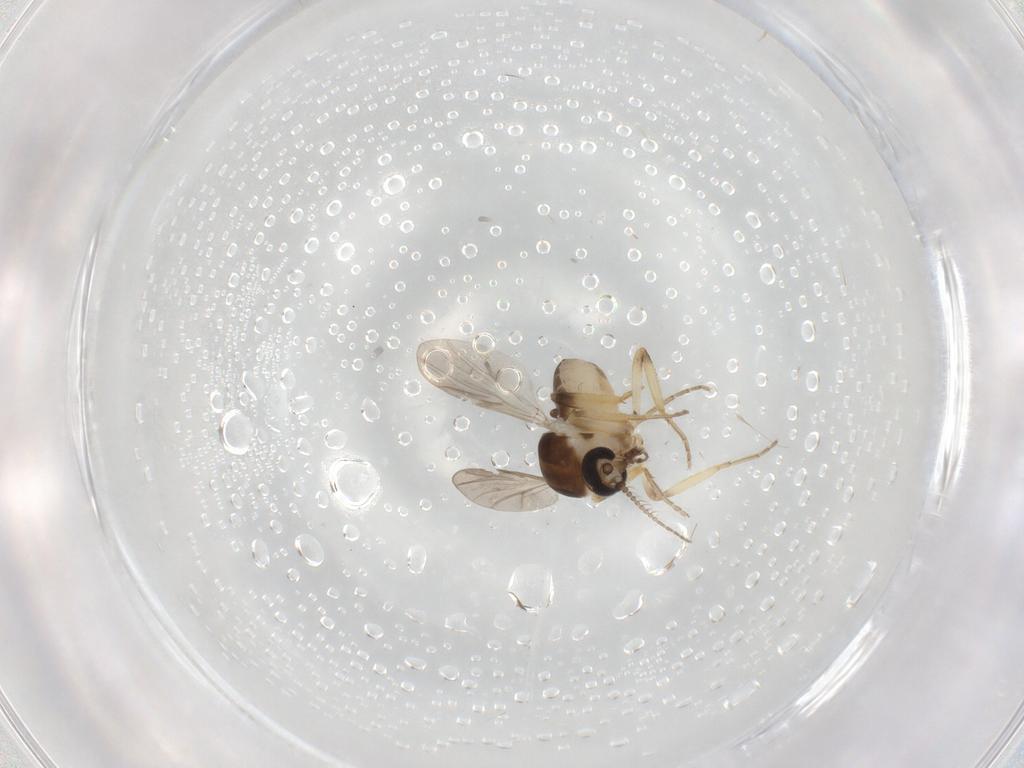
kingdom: Animalia
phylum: Arthropoda
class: Insecta
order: Diptera
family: Ceratopogonidae
